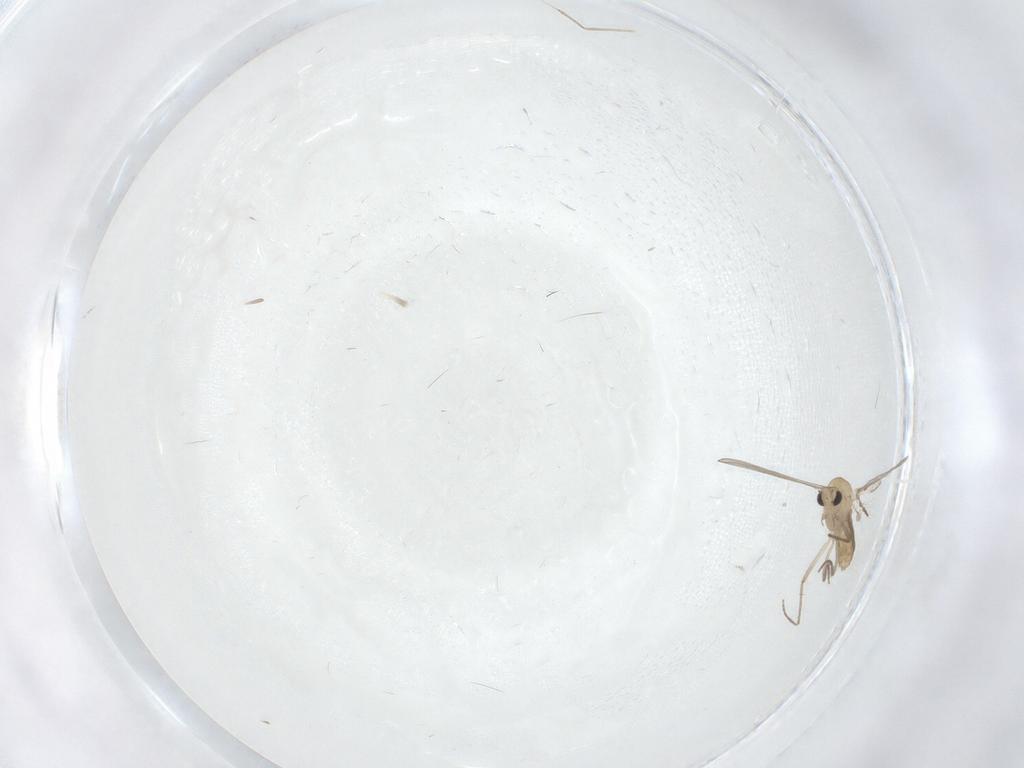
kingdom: Animalia
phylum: Arthropoda
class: Insecta
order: Diptera
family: Chironomidae
